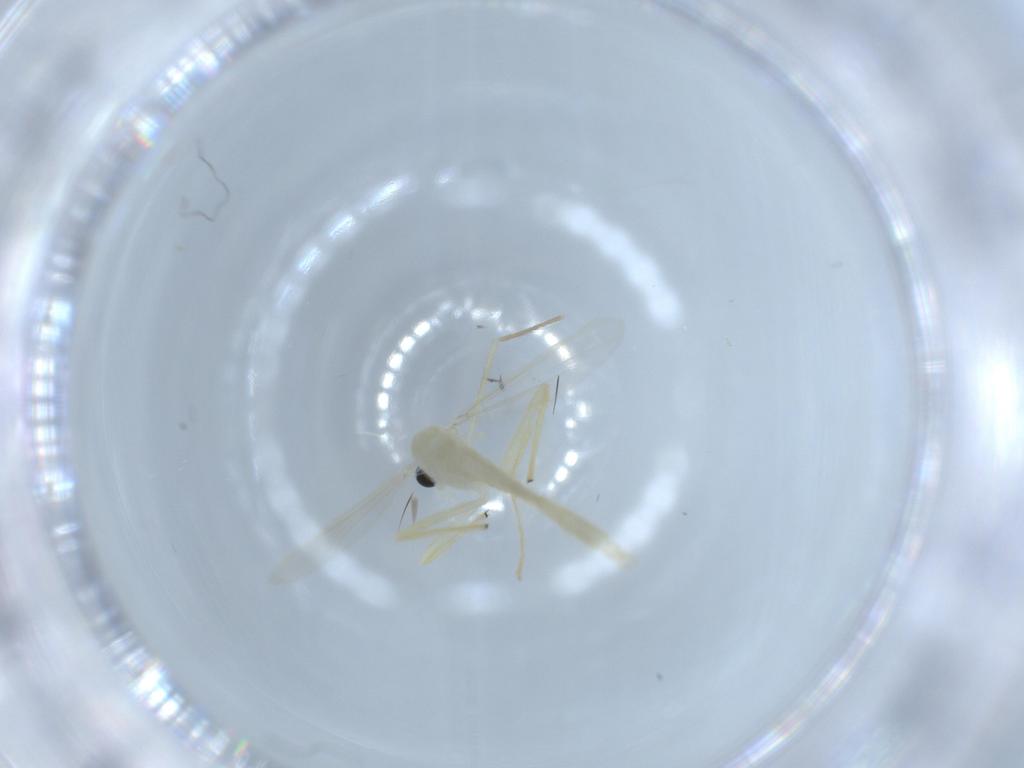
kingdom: Animalia
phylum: Arthropoda
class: Insecta
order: Diptera
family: Chironomidae
